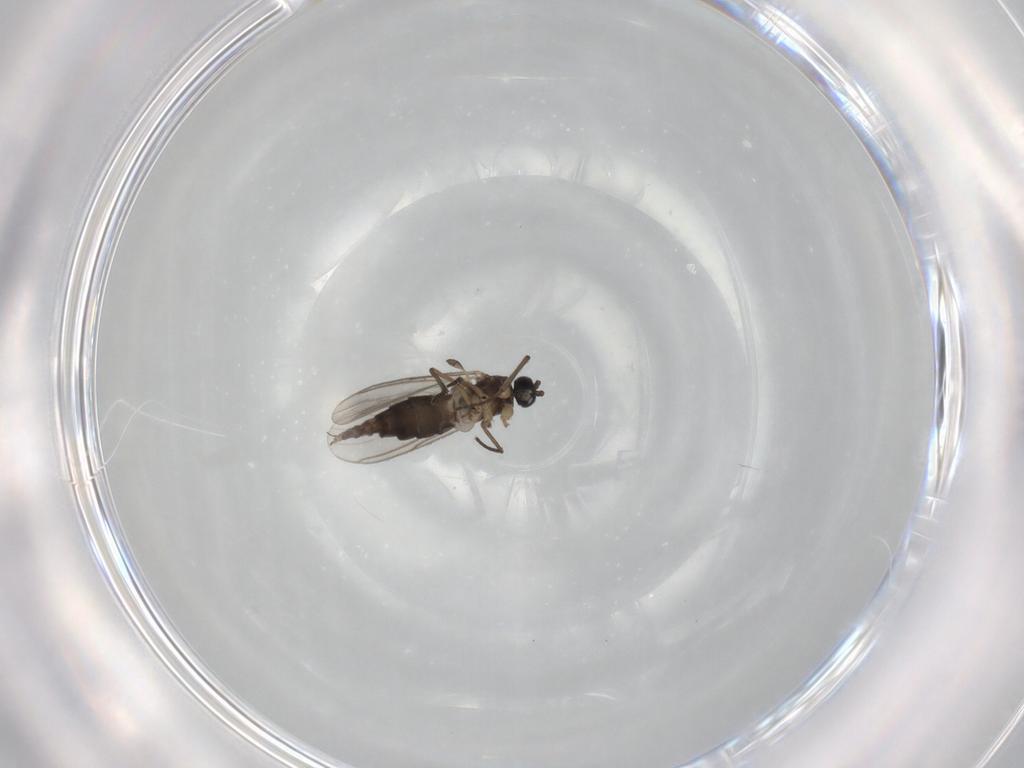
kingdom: Animalia
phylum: Arthropoda
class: Insecta
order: Diptera
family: Sciaridae
